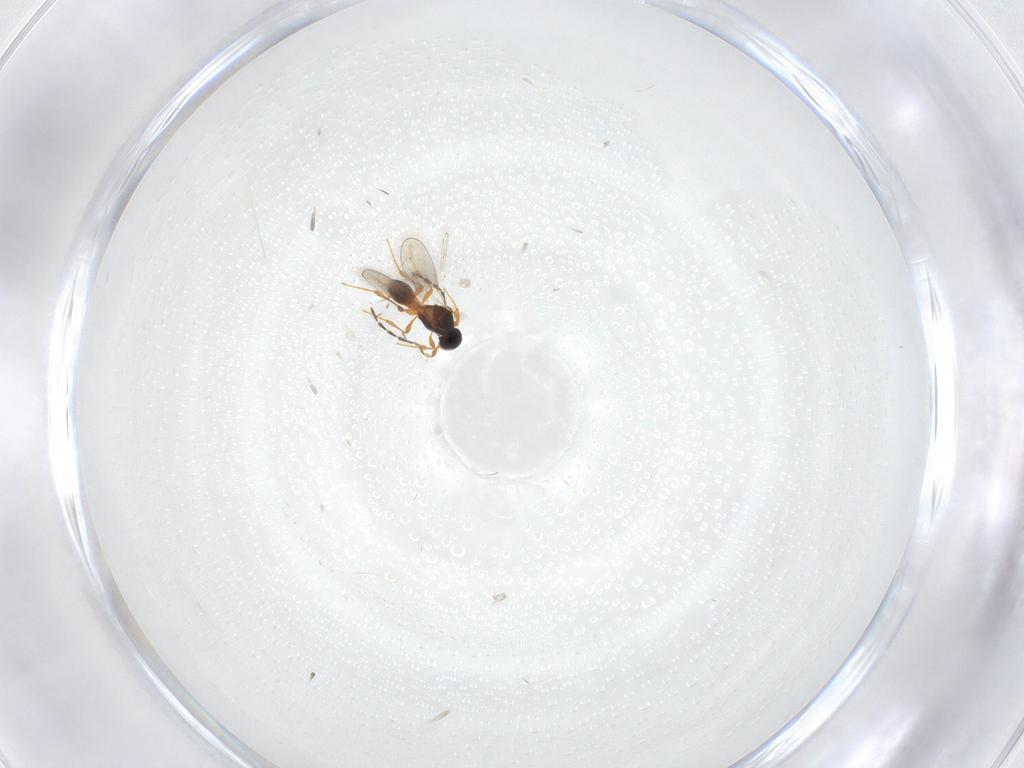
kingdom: Animalia
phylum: Arthropoda
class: Insecta
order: Hymenoptera
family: Platygastridae
